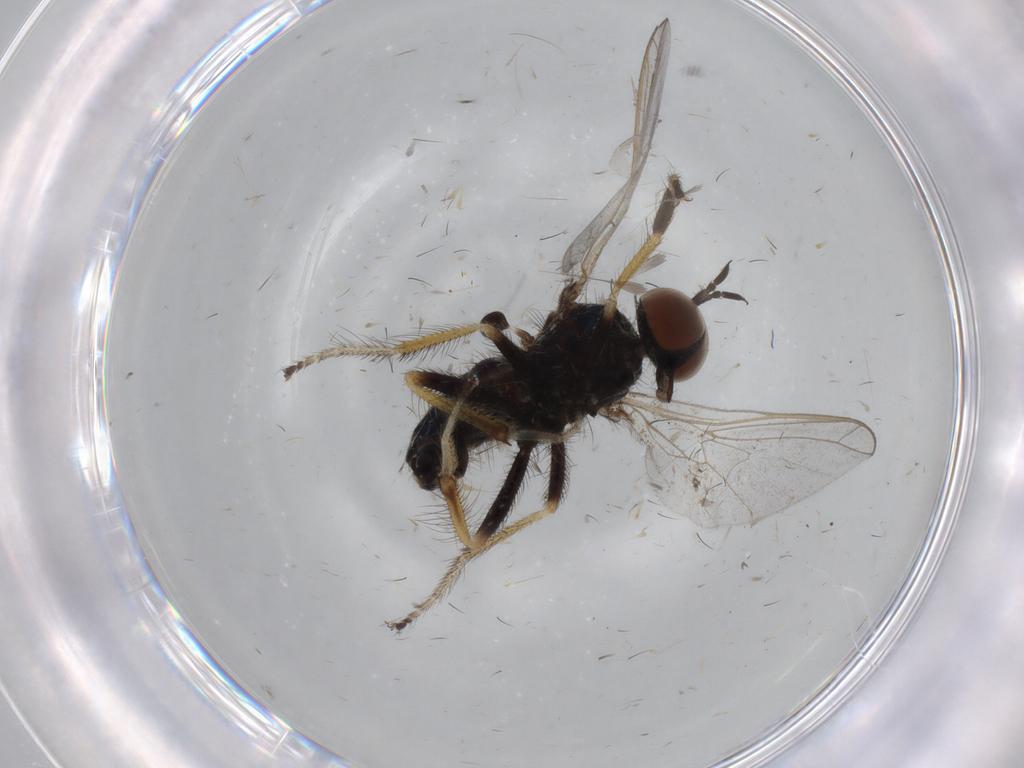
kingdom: Animalia
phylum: Arthropoda
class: Insecta
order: Diptera
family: Empididae
